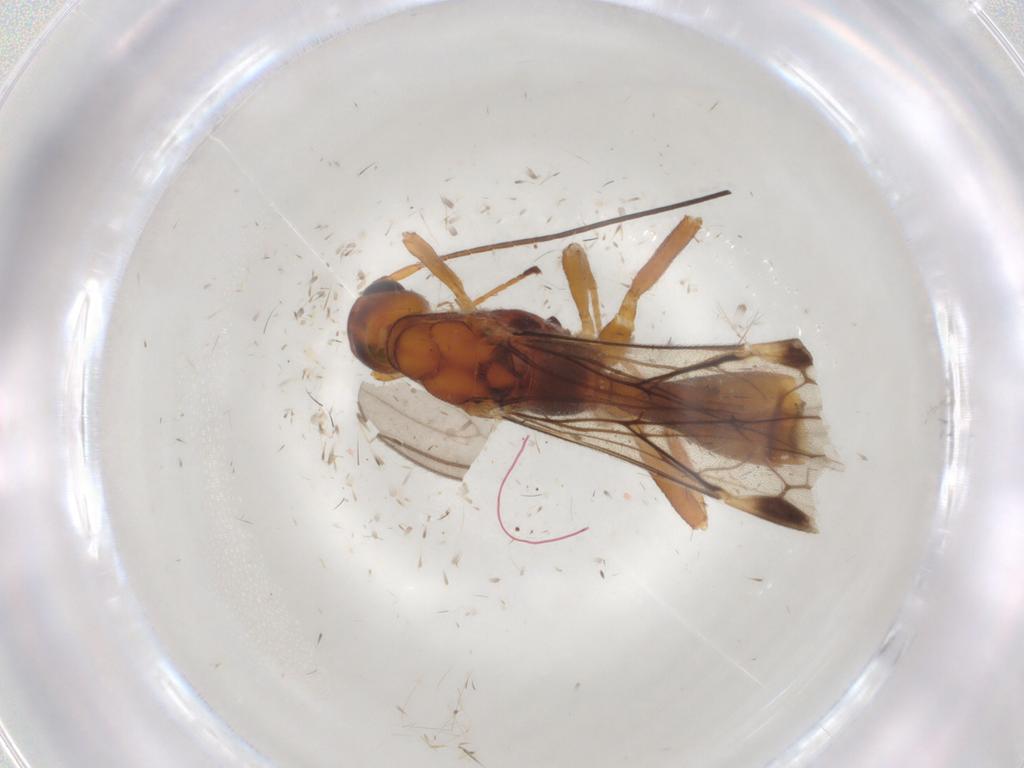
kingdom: Animalia
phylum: Arthropoda
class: Insecta
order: Hymenoptera
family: Braconidae
